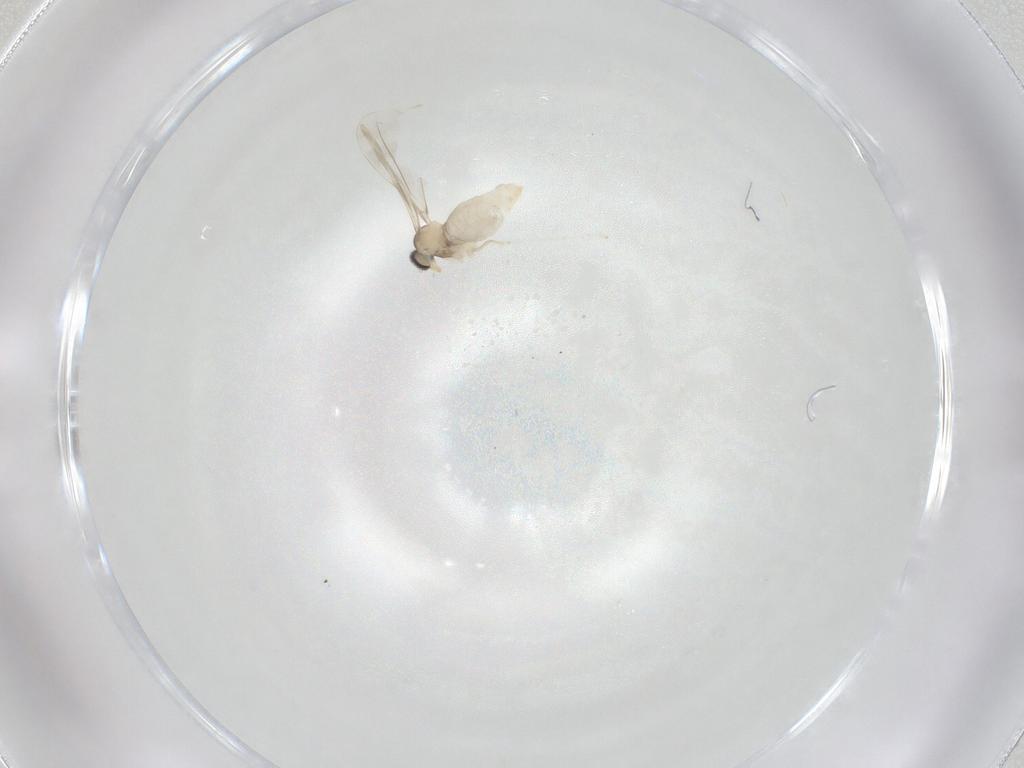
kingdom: Animalia
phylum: Arthropoda
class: Insecta
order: Diptera
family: Cecidomyiidae
